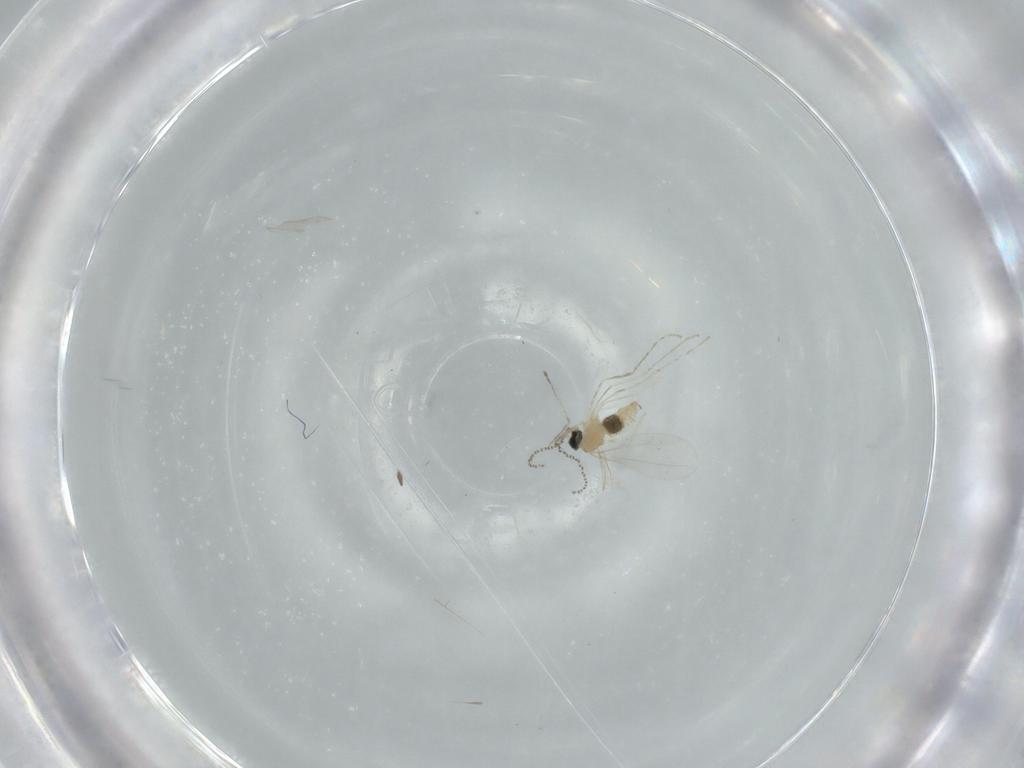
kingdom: Animalia
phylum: Arthropoda
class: Insecta
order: Diptera
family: Cecidomyiidae
